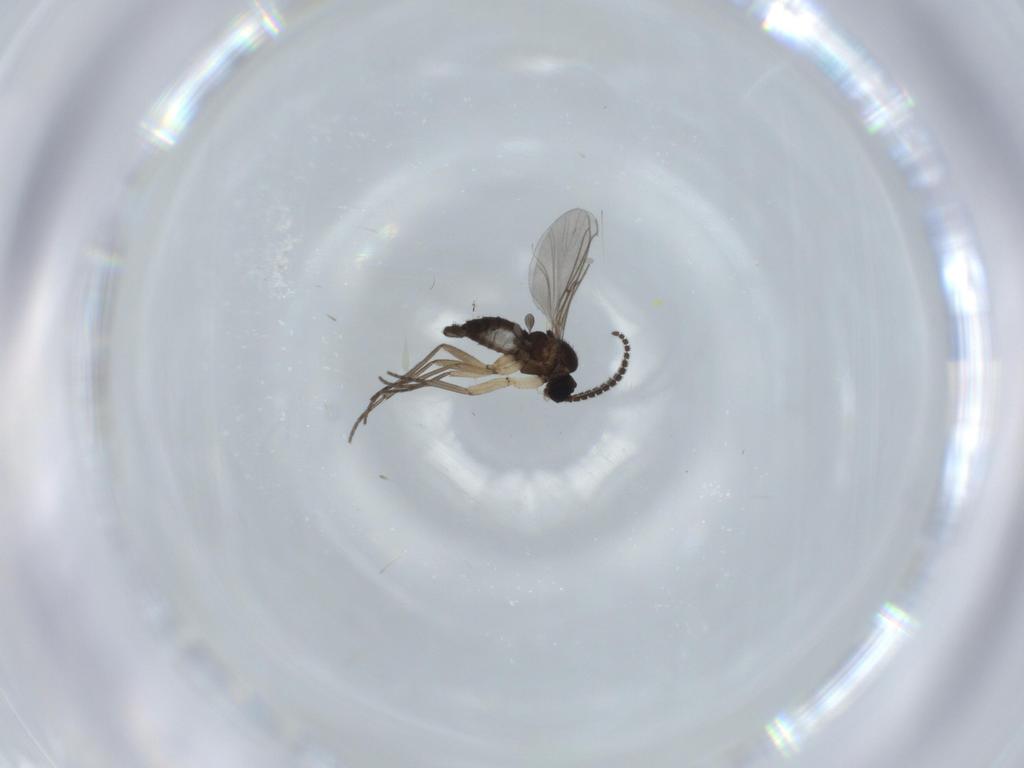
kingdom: Animalia
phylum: Arthropoda
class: Insecta
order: Diptera
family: Sciaridae
